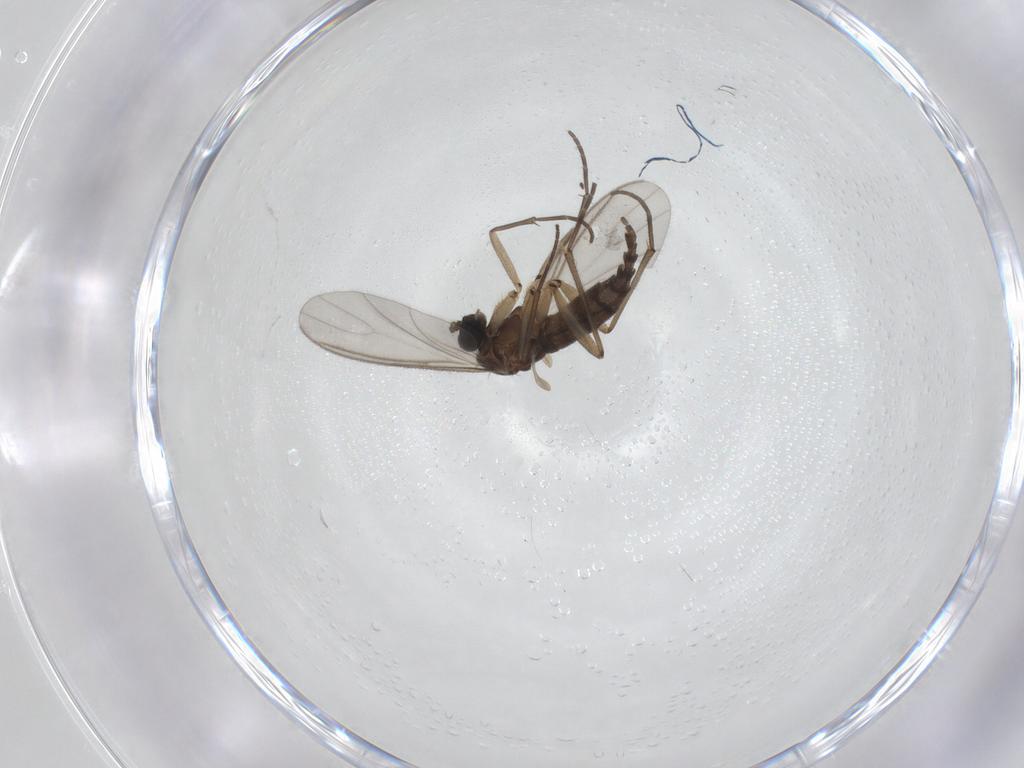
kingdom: Animalia
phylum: Arthropoda
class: Insecta
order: Diptera
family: Sciaridae
